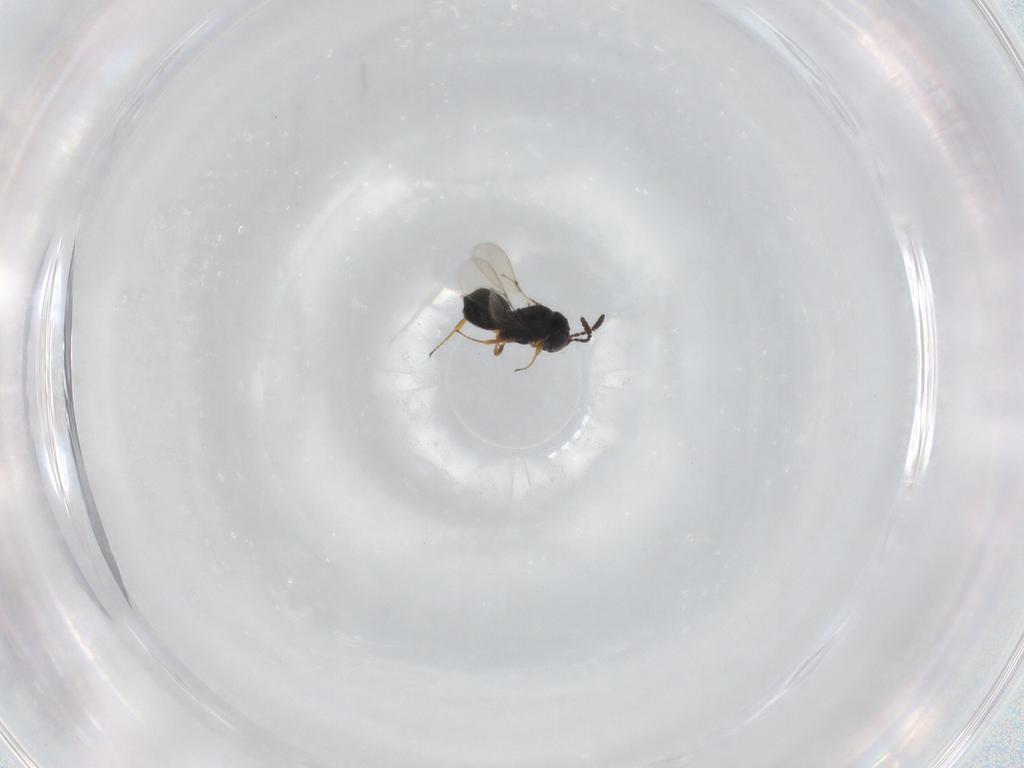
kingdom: Animalia
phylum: Arthropoda
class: Insecta
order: Hymenoptera
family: Scelionidae
